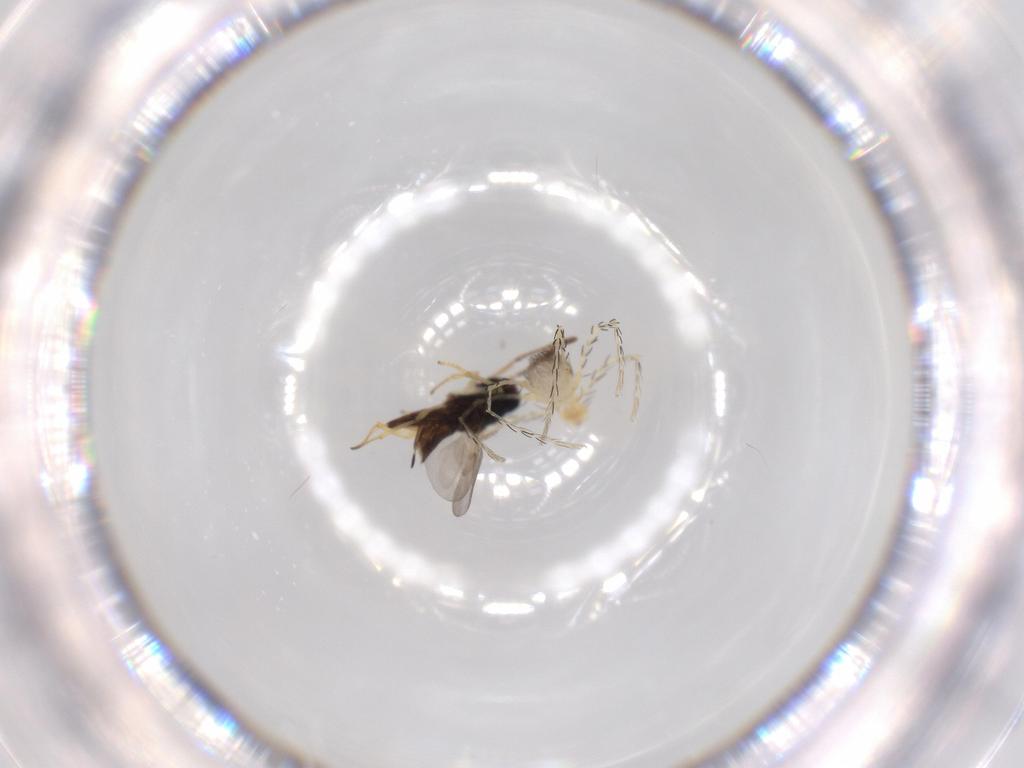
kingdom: Animalia
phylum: Arthropoda
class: Arachnida
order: Trombidiformes
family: Erythraeidae
